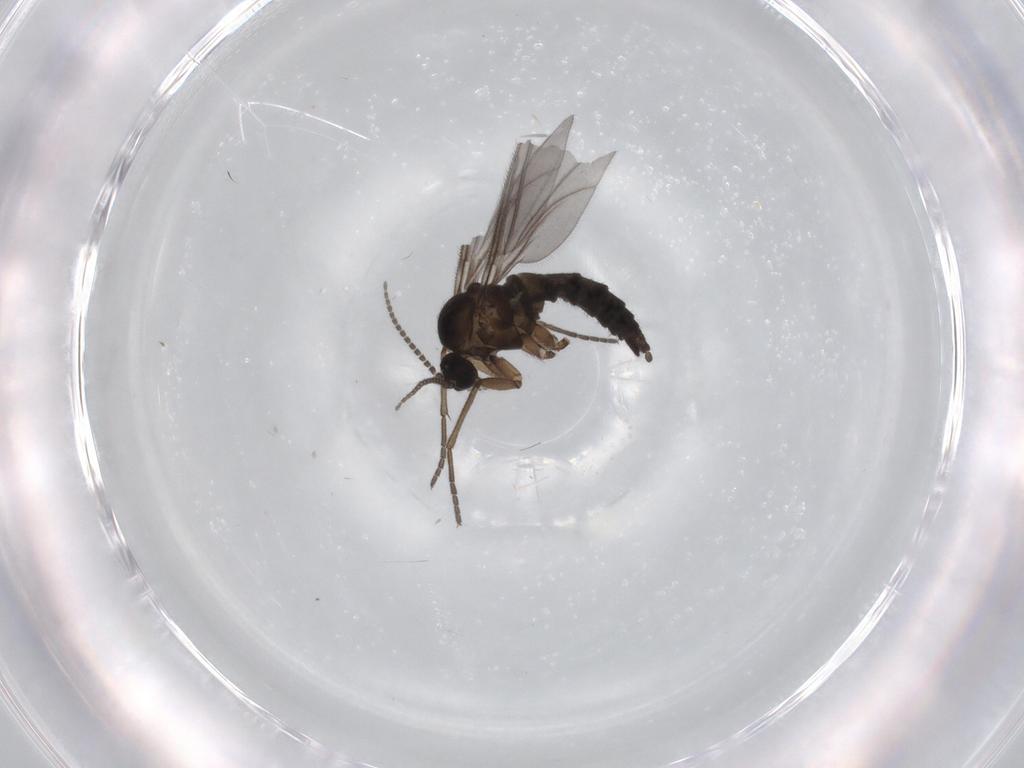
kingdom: Animalia
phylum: Arthropoda
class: Insecta
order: Diptera
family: Sciaridae
